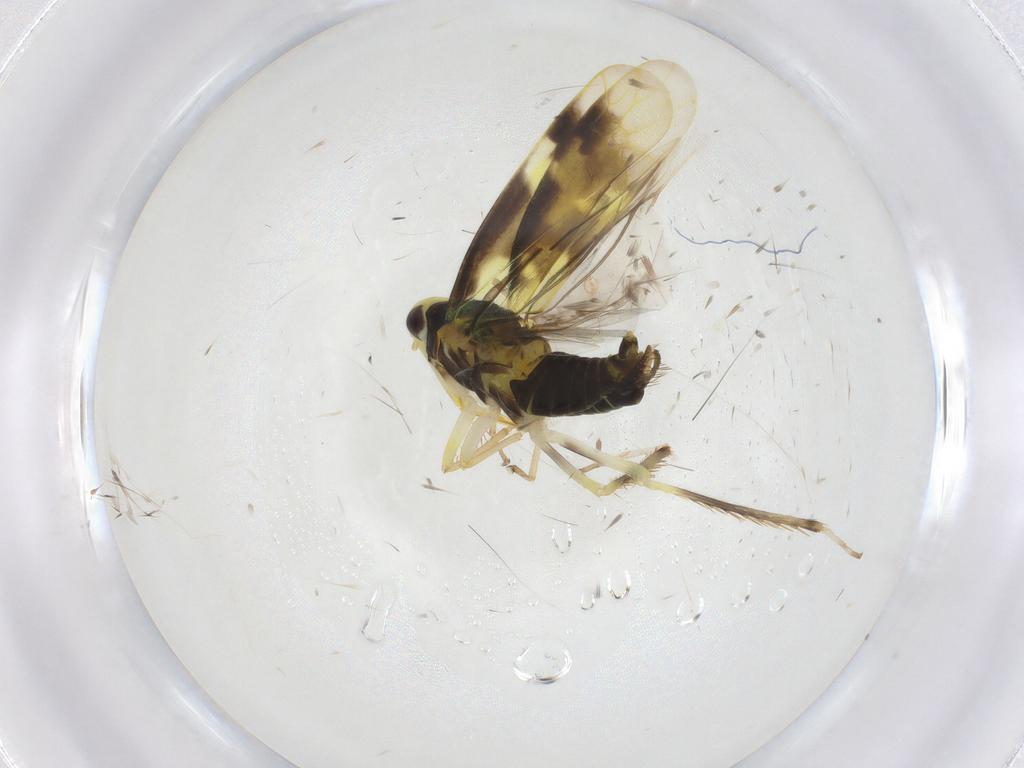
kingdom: Animalia
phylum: Arthropoda
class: Insecta
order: Hemiptera
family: Cicadellidae
